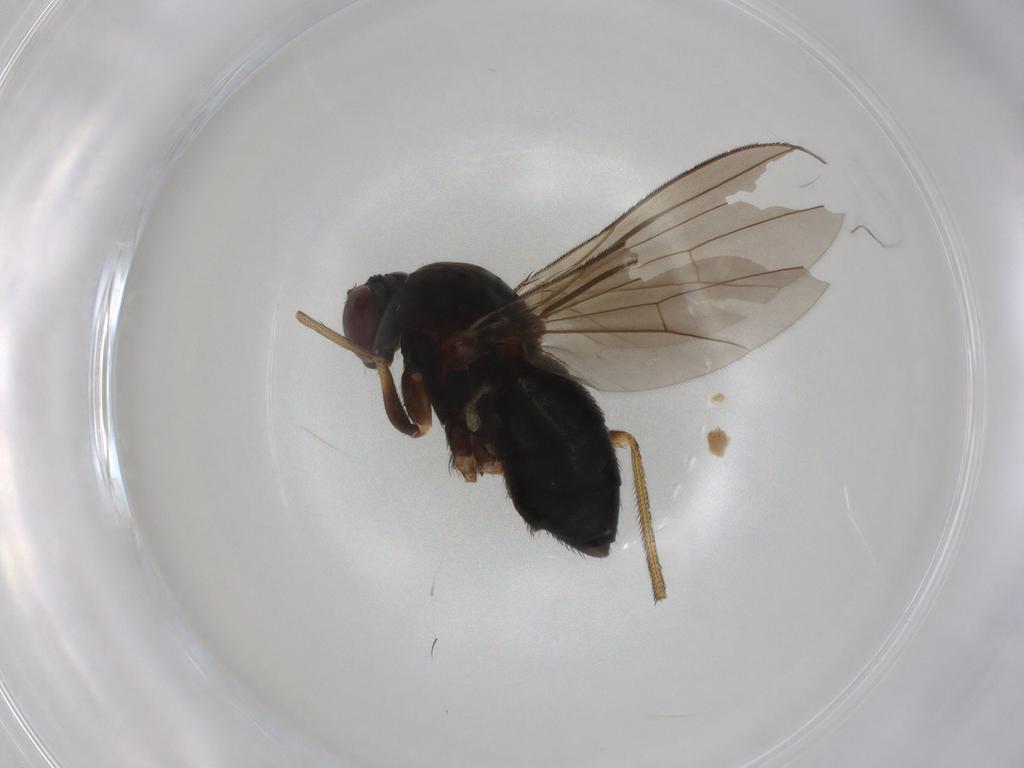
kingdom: Animalia
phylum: Arthropoda
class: Insecta
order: Diptera
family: Dolichopodidae
